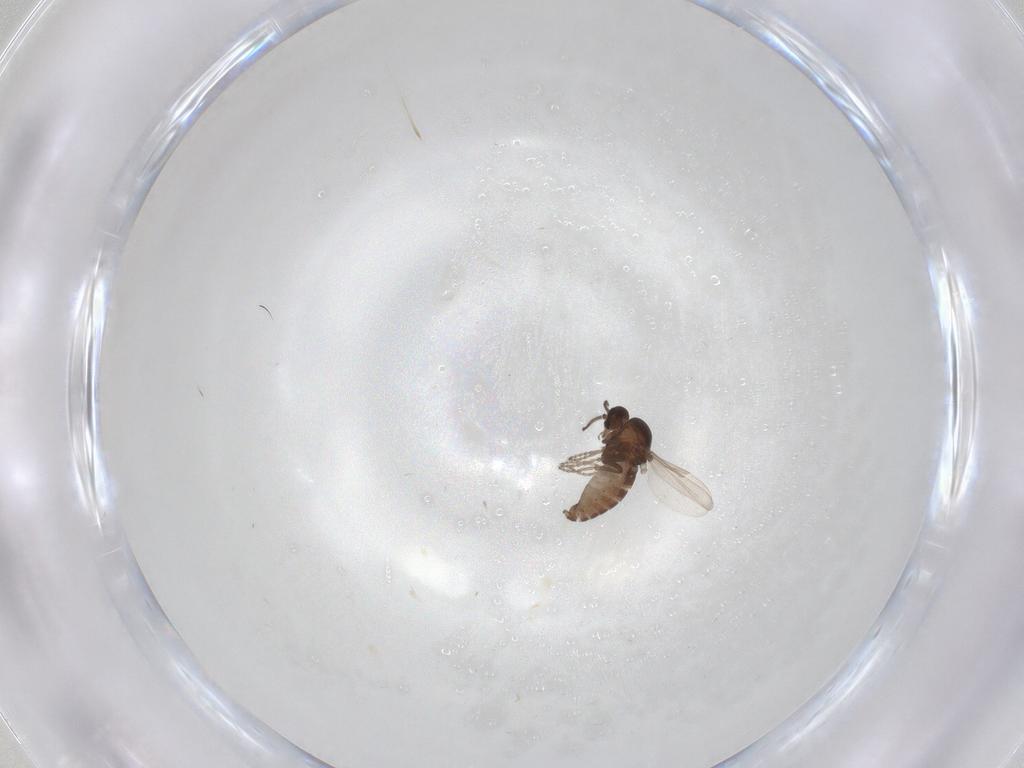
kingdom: Animalia
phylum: Arthropoda
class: Insecta
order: Diptera
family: Ceratopogonidae
